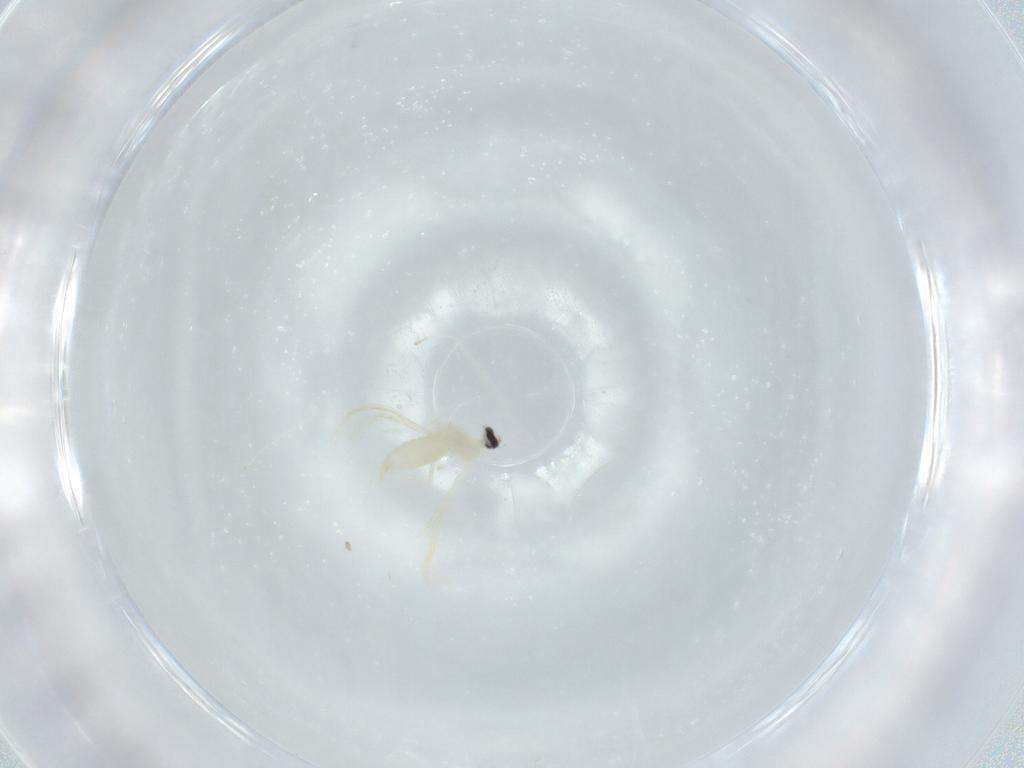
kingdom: Animalia
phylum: Arthropoda
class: Insecta
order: Diptera
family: Cecidomyiidae
